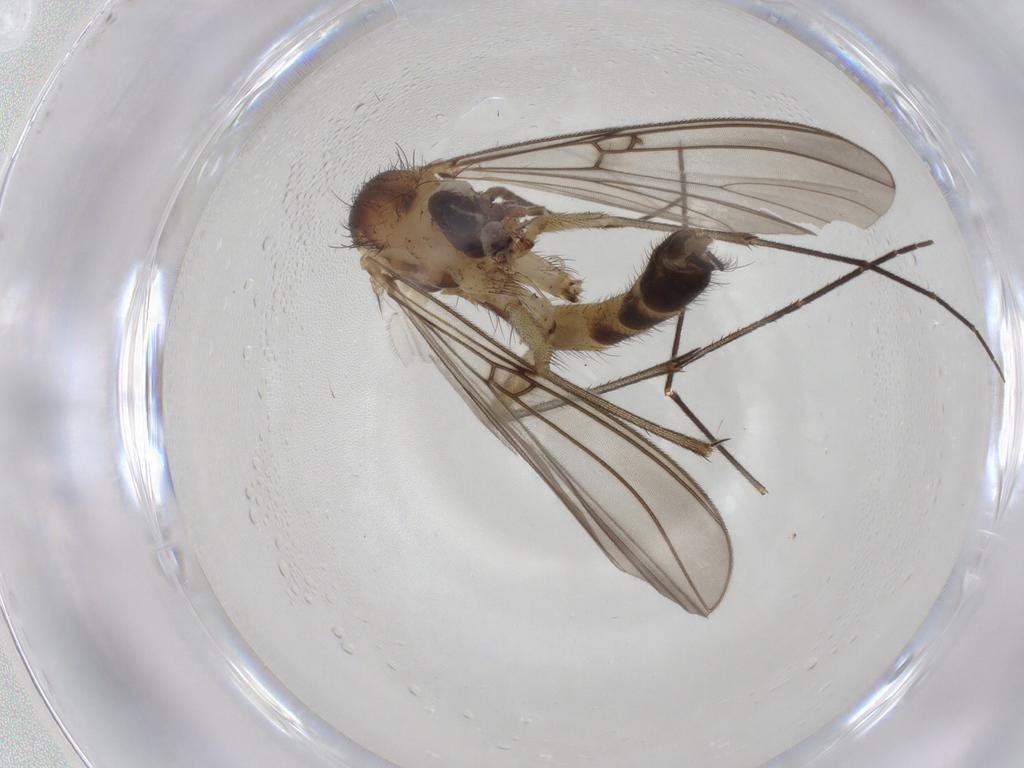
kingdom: Animalia
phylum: Arthropoda
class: Insecta
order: Diptera
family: Mycetophilidae
